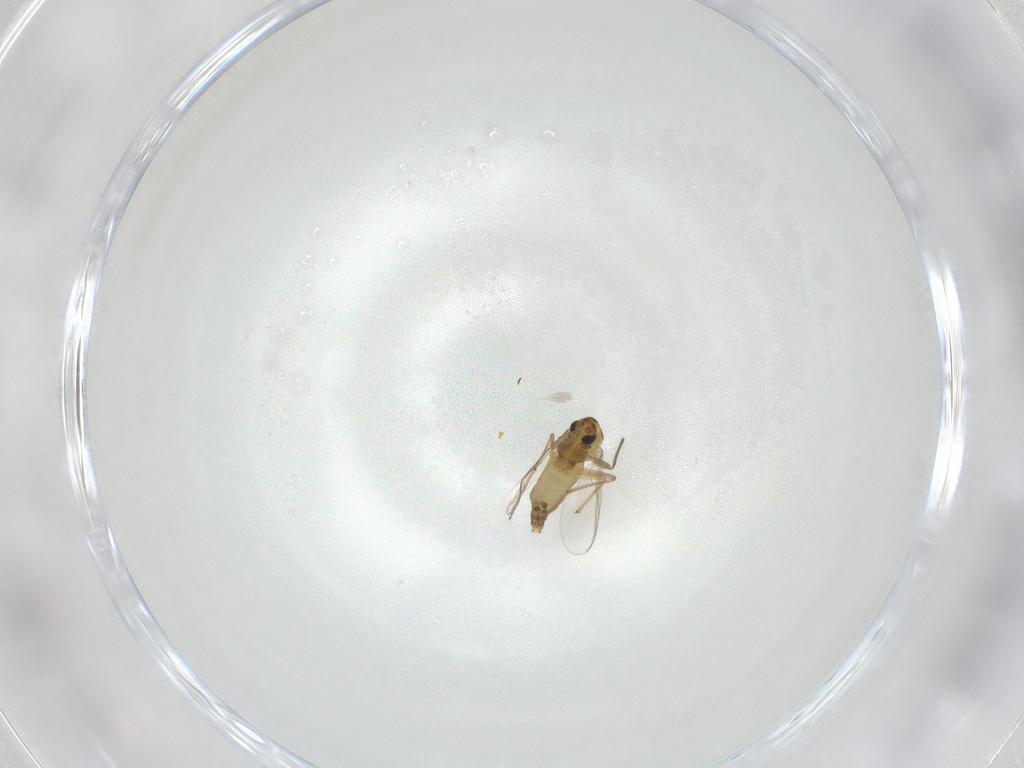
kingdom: Animalia
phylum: Arthropoda
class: Insecta
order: Diptera
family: Chironomidae
